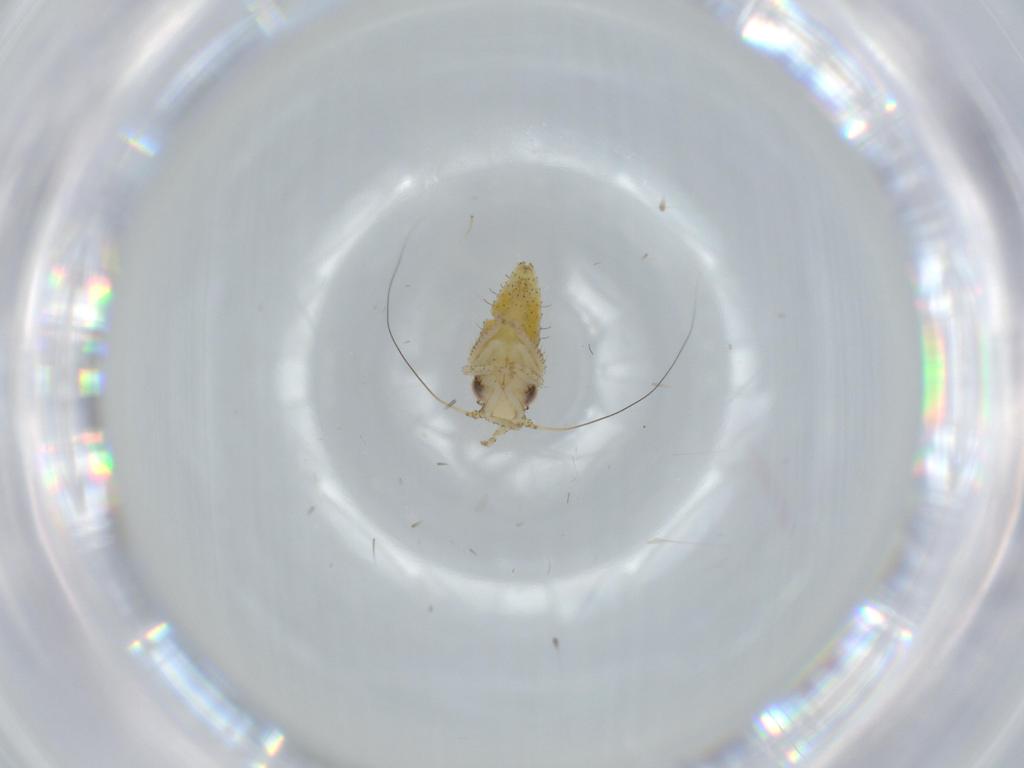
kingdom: Animalia
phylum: Arthropoda
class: Insecta
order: Hemiptera
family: Cicadellidae
